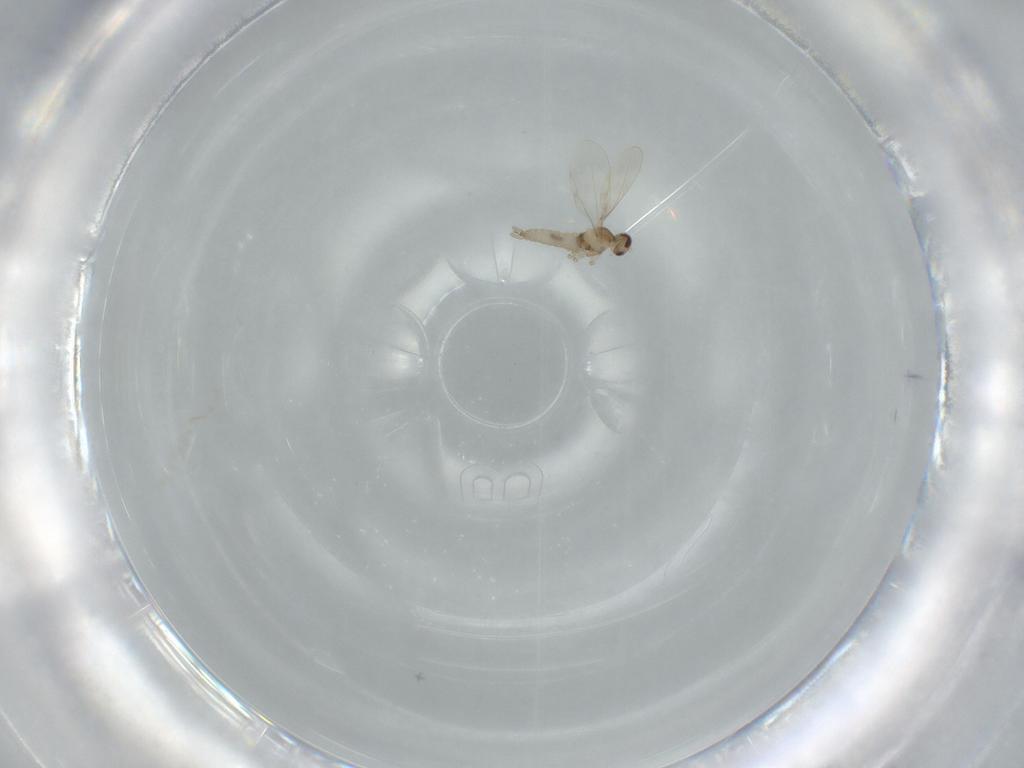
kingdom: Animalia
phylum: Arthropoda
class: Insecta
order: Diptera
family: Cecidomyiidae
